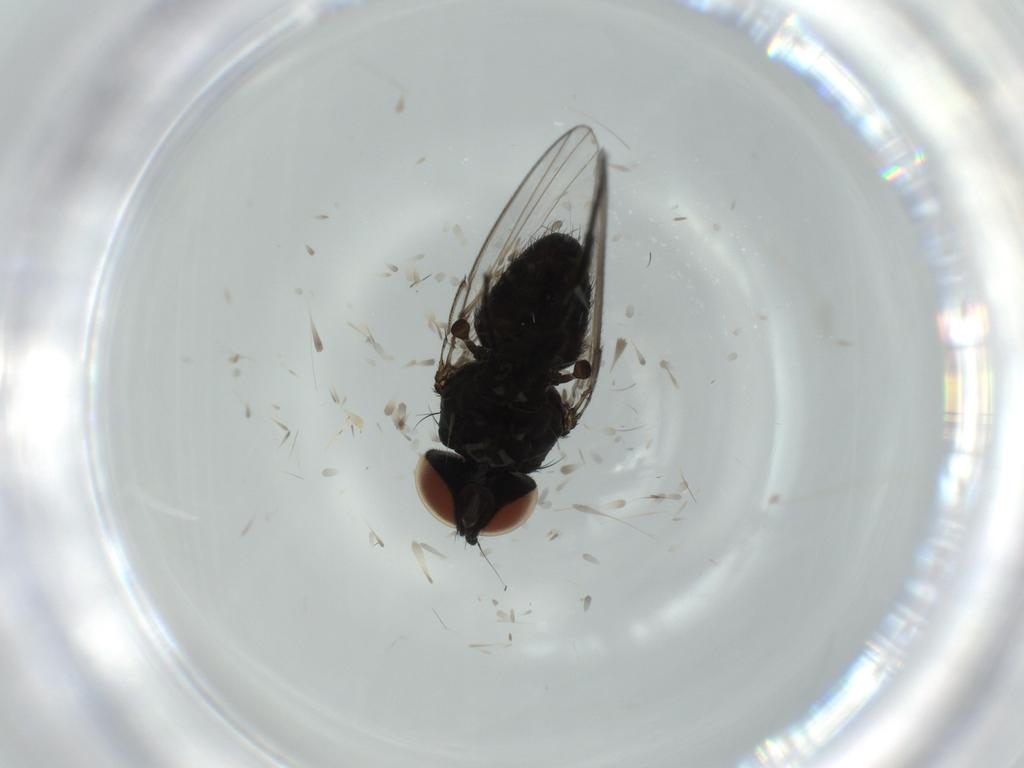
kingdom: Animalia
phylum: Arthropoda
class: Insecta
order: Diptera
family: Milichiidae
